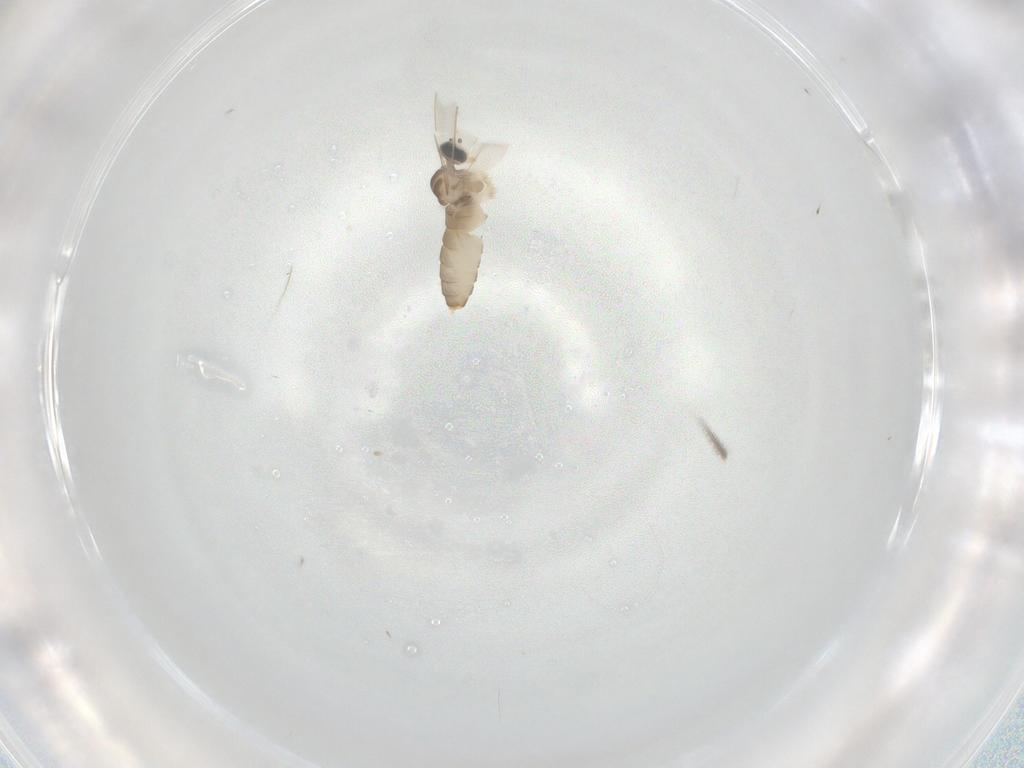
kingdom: Animalia
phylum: Arthropoda
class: Insecta
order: Diptera
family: Cecidomyiidae
